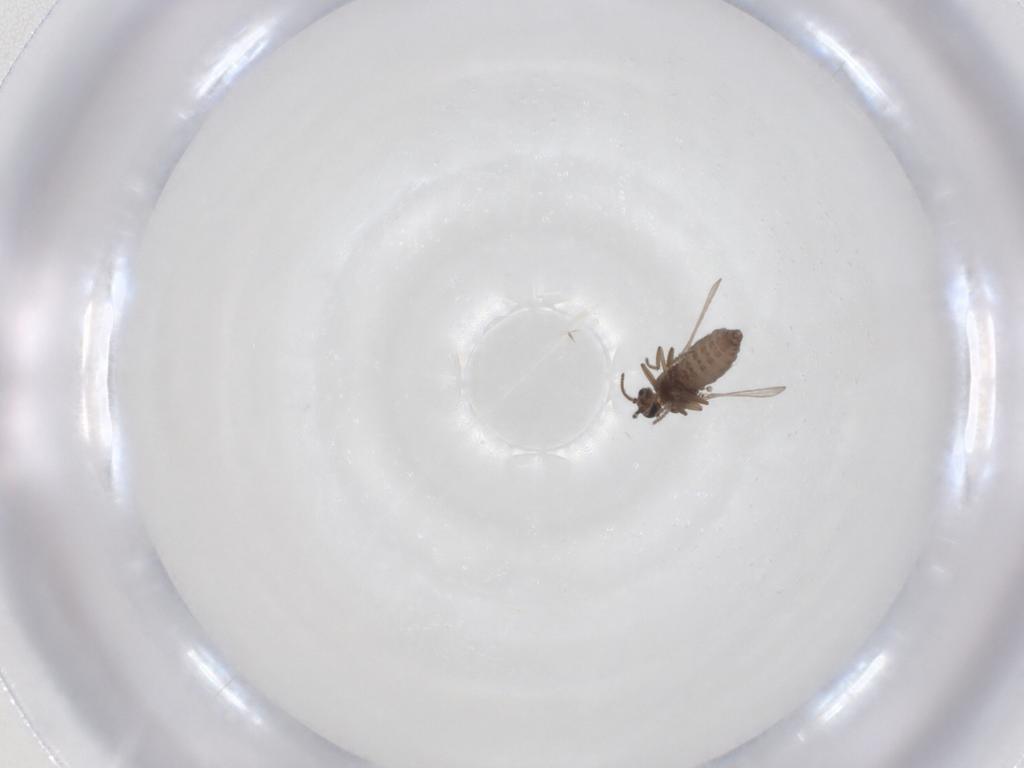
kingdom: Animalia
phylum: Arthropoda
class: Insecta
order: Diptera
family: Ceratopogonidae
